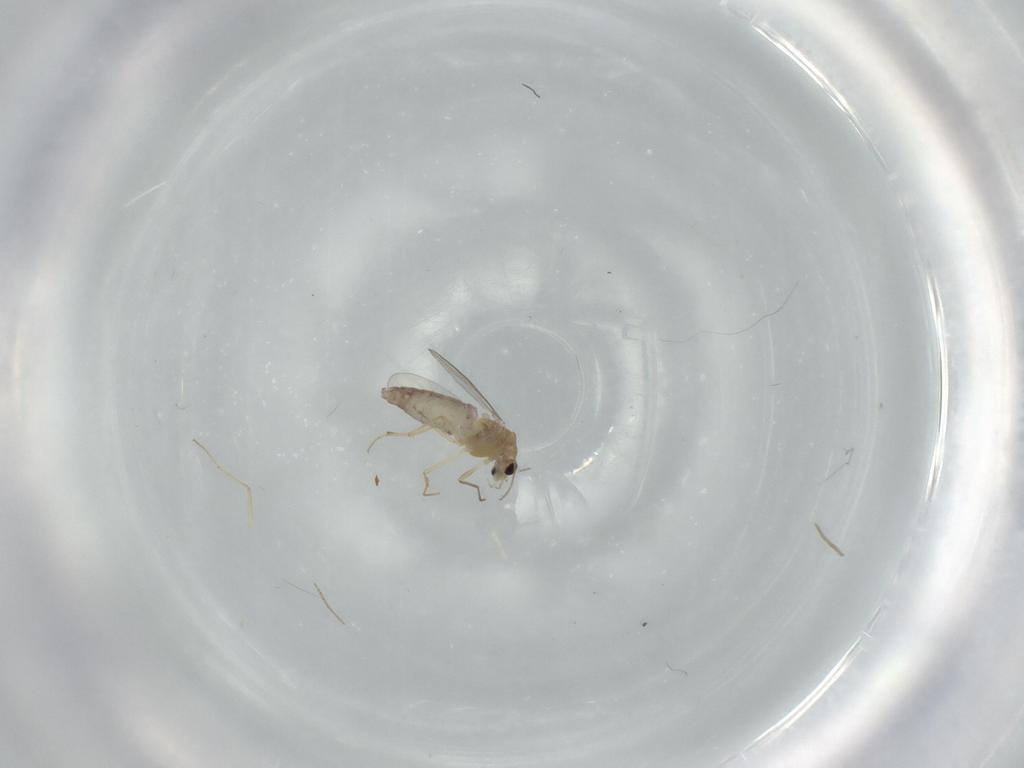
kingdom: Animalia
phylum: Arthropoda
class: Insecta
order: Diptera
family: Chironomidae
